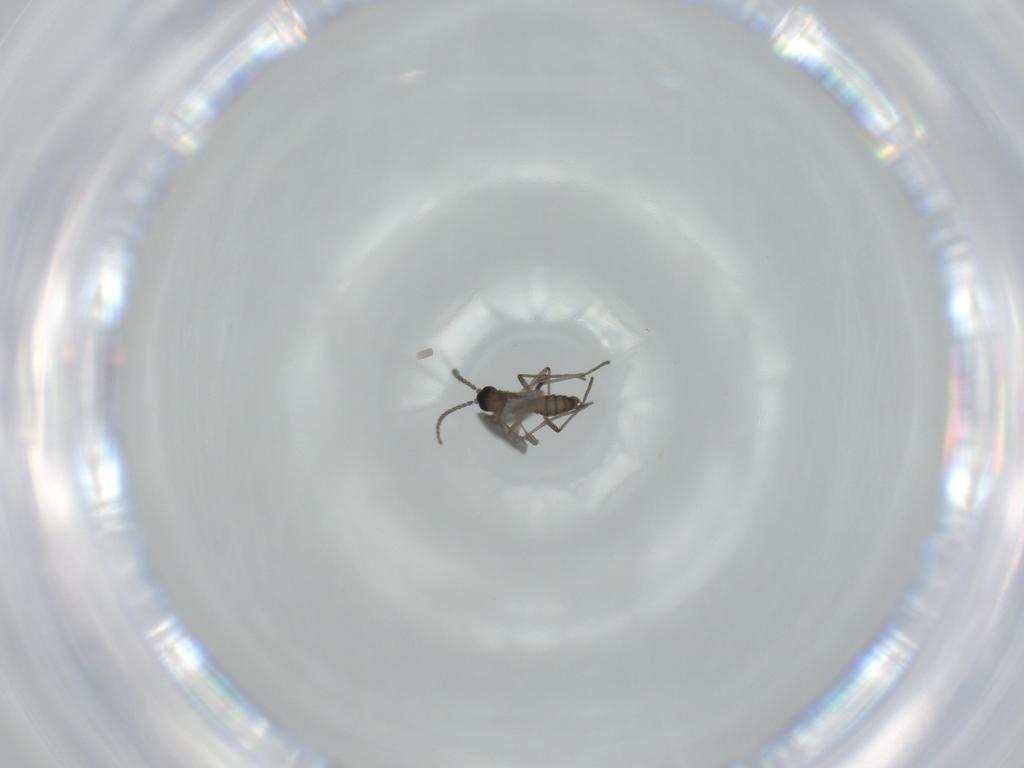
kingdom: Animalia
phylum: Arthropoda
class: Insecta
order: Diptera
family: Sciaridae
